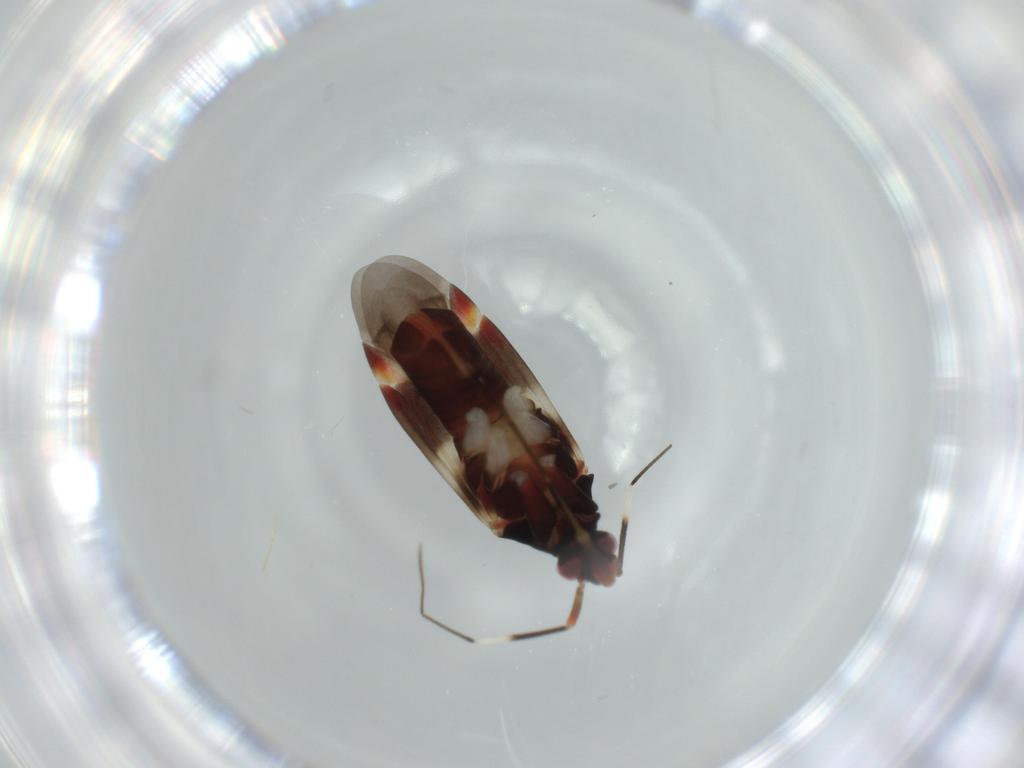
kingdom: Animalia
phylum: Arthropoda
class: Insecta
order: Hemiptera
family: Miridae
